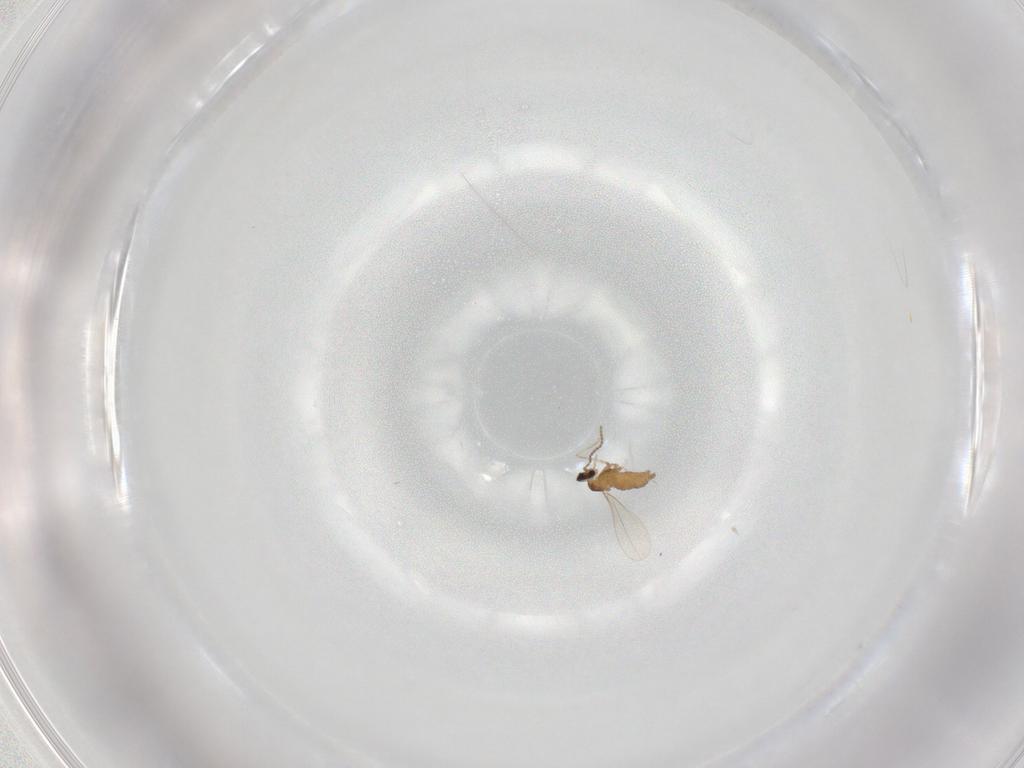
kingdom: Animalia
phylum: Arthropoda
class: Insecta
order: Diptera
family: Cecidomyiidae
